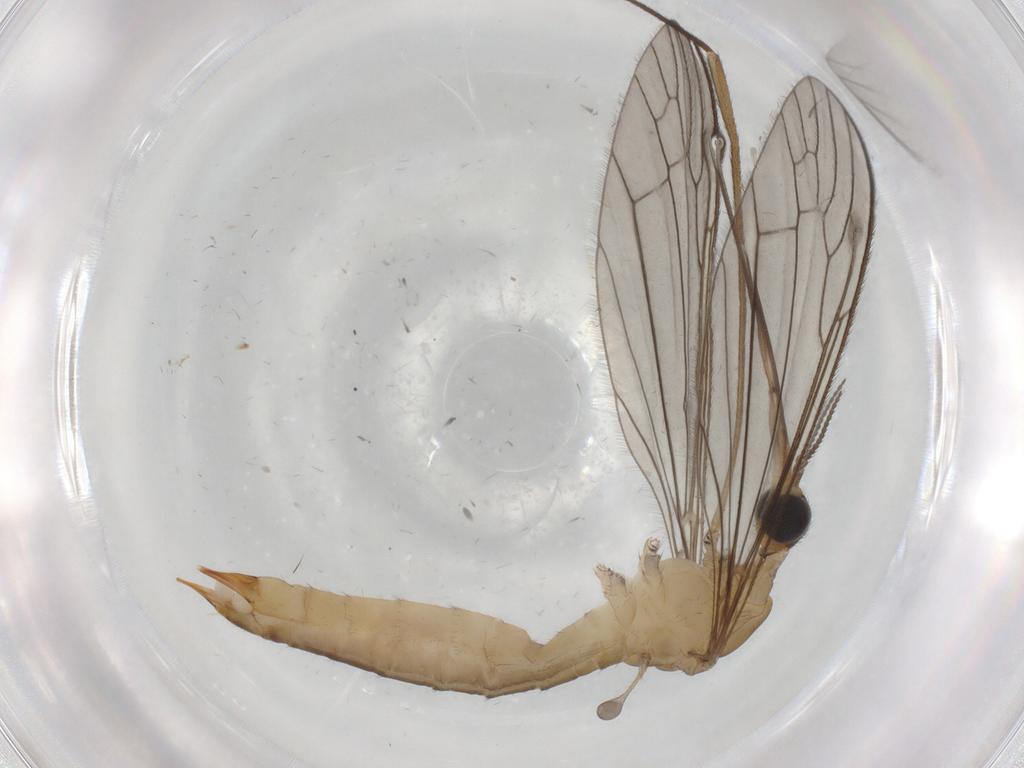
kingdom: Animalia
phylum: Arthropoda
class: Insecta
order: Diptera
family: Limoniidae
